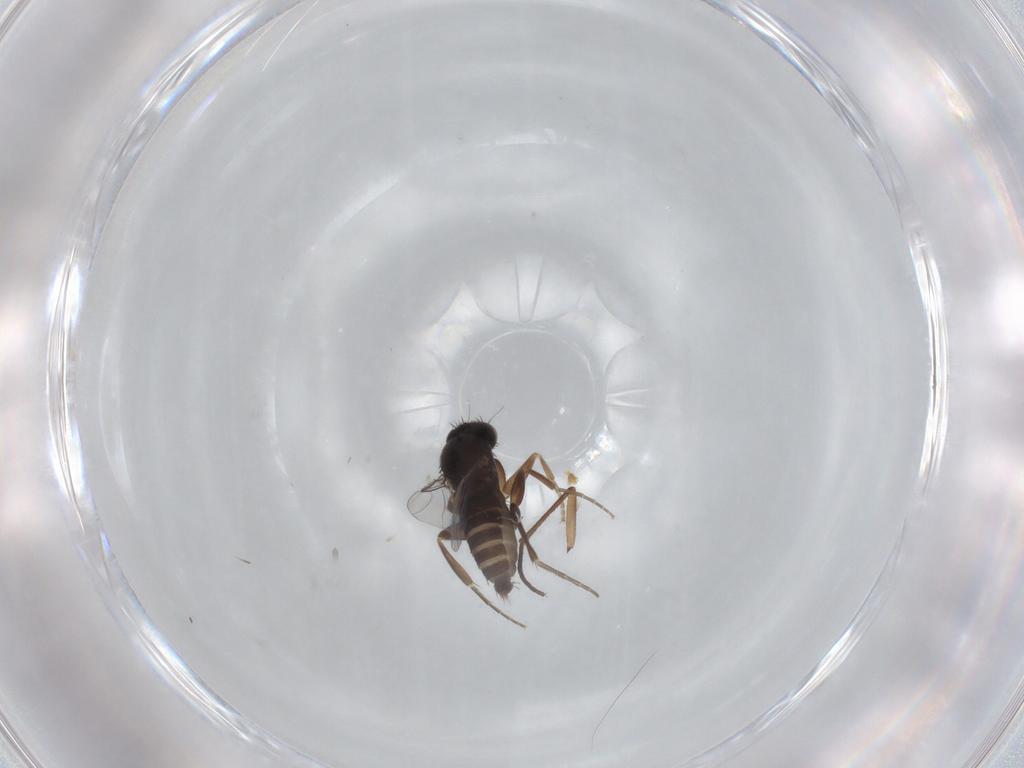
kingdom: Animalia
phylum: Arthropoda
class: Insecta
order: Diptera
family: Phoridae
